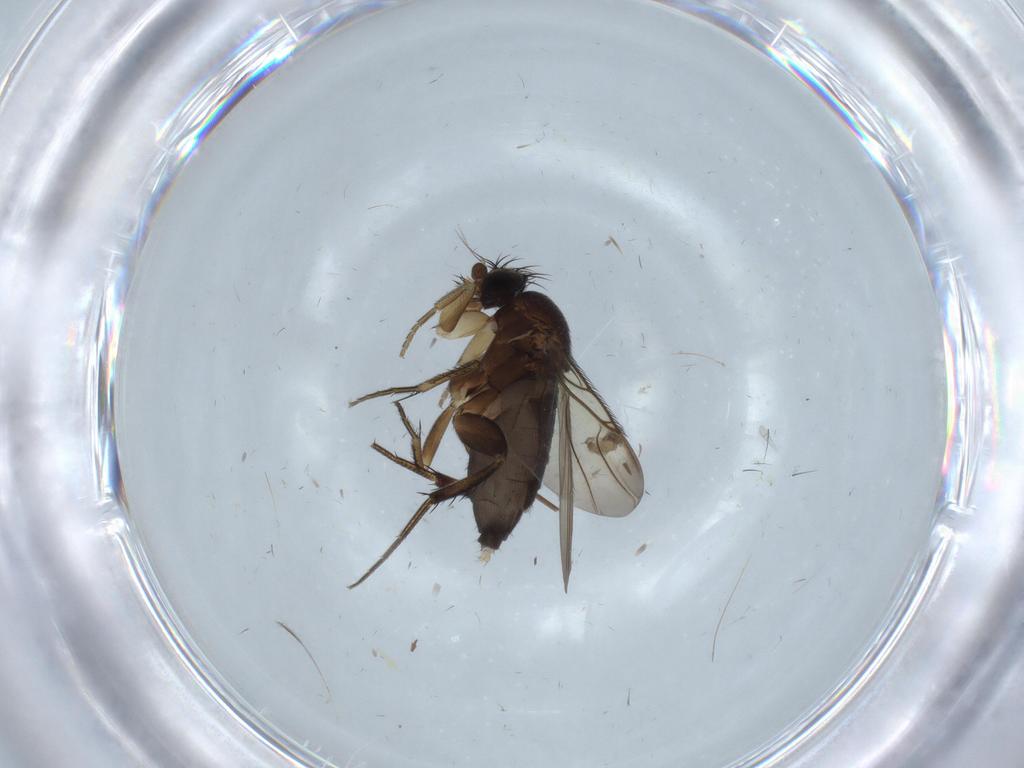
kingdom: Animalia
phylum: Arthropoda
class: Insecta
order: Diptera
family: Phoridae
